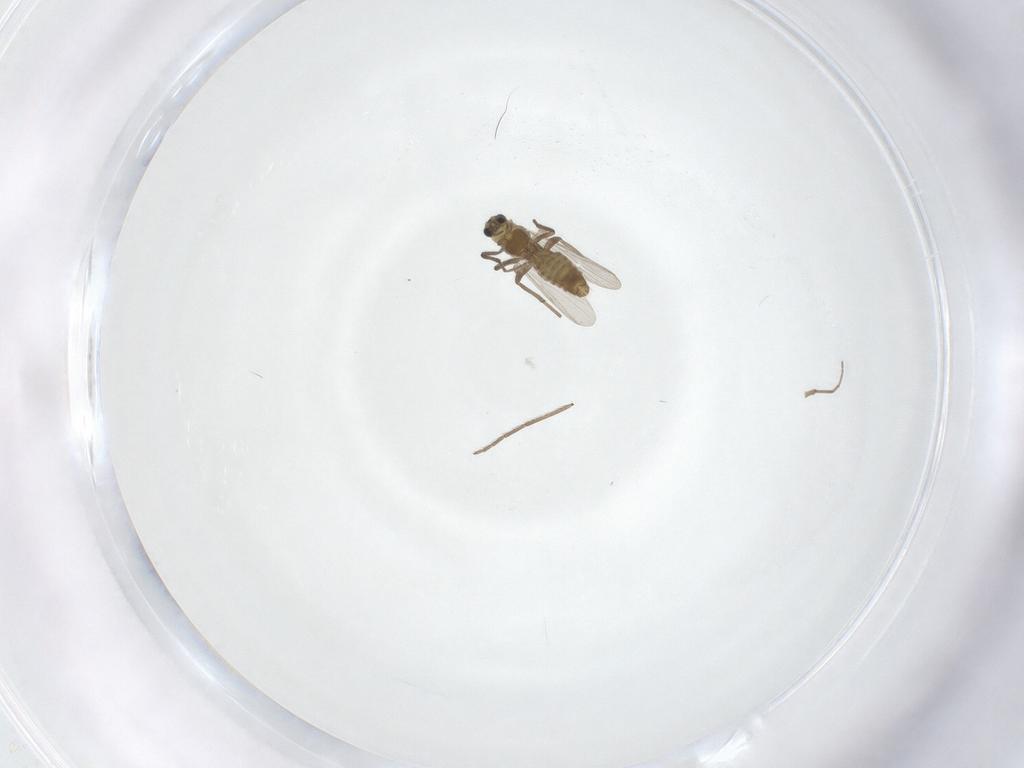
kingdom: Animalia
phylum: Arthropoda
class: Insecta
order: Diptera
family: Chironomidae
